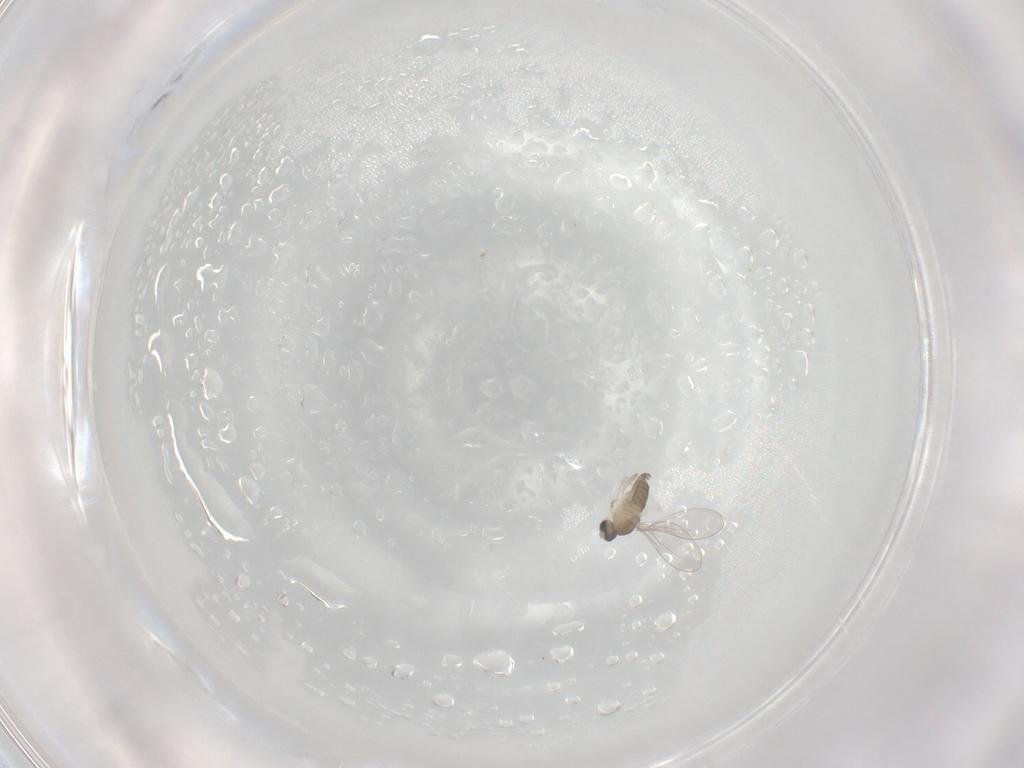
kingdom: Animalia
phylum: Arthropoda
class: Insecta
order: Diptera
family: Cecidomyiidae
